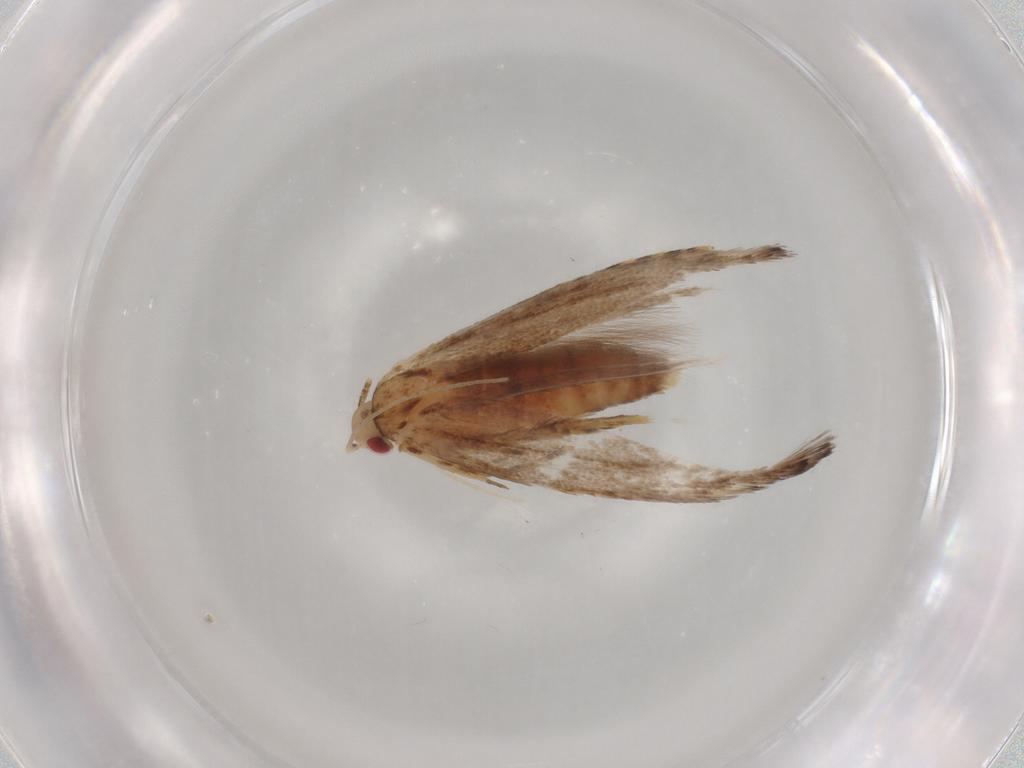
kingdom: Animalia
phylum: Arthropoda
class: Insecta
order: Lepidoptera
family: Cosmopterigidae
